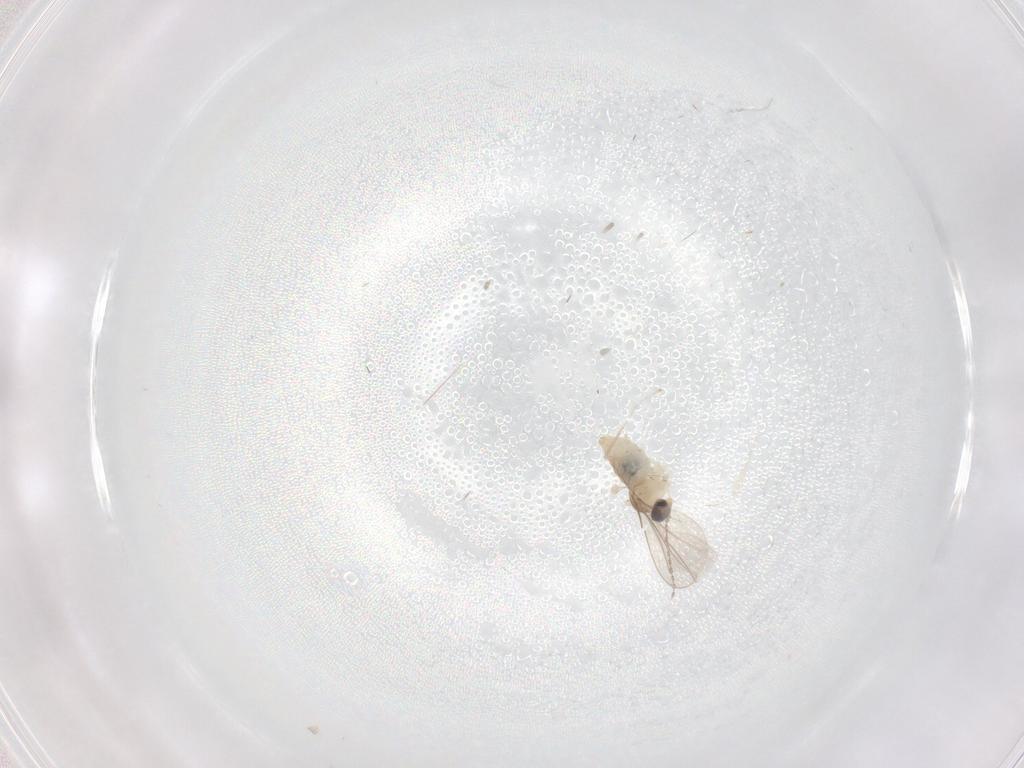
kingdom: Animalia
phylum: Arthropoda
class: Insecta
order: Diptera
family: Cecidomyiidae
